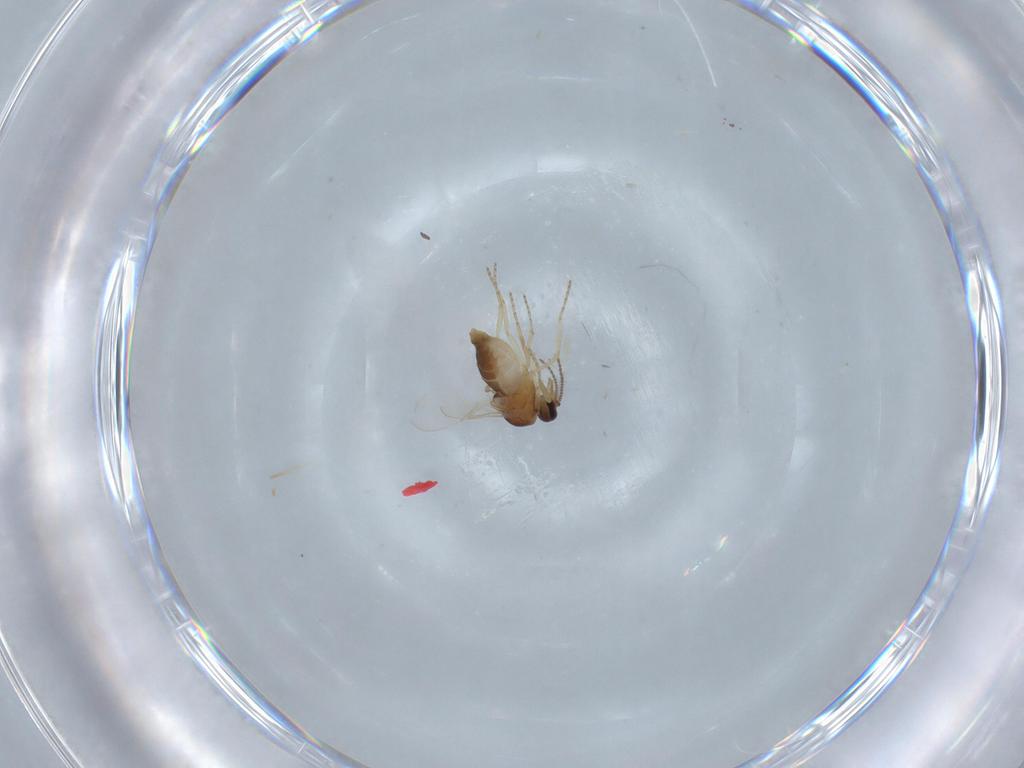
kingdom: Animalia
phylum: Arthropoda
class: Insecta
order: Diptera
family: Ceratopogonidae
